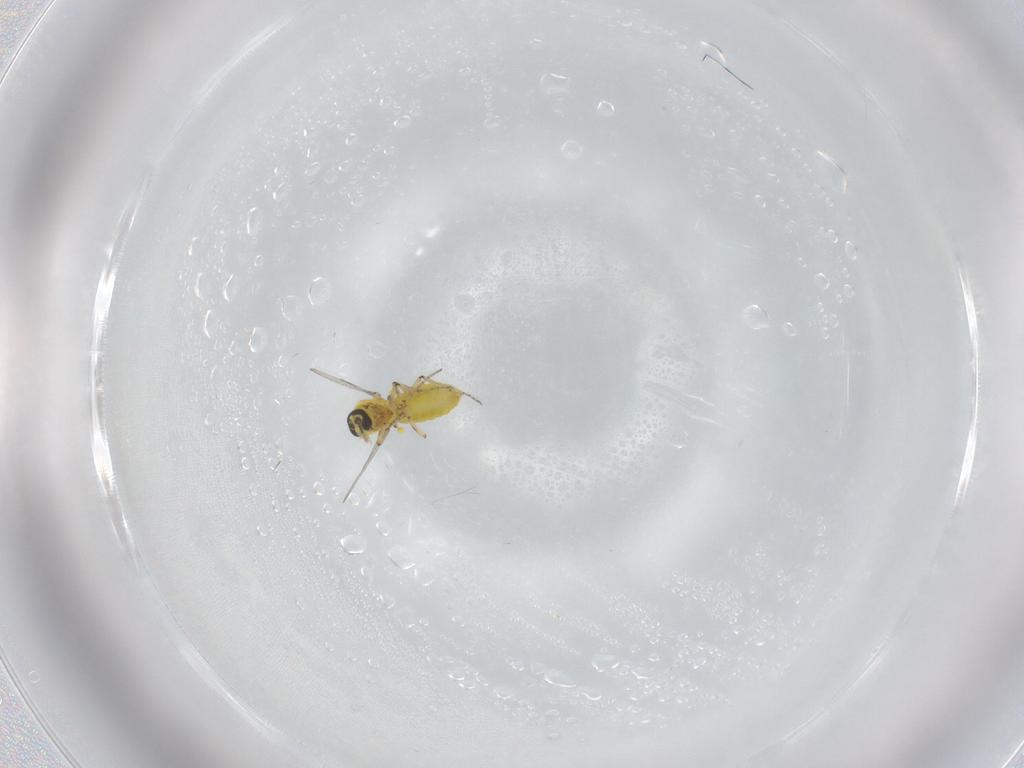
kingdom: Animalia
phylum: Arthropoda
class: Insecta
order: Diptera
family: Ceratopogonidae
